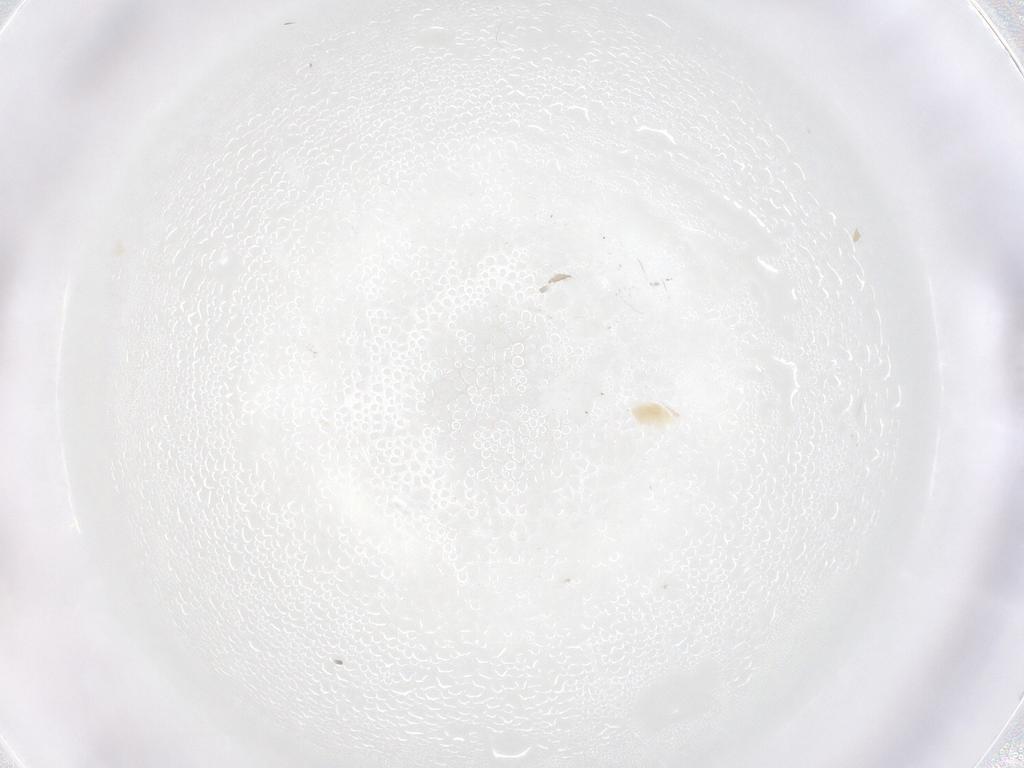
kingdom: Animalia
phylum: Arthropoda
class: Arachnida
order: Trombidiformes
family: Eupodidae
